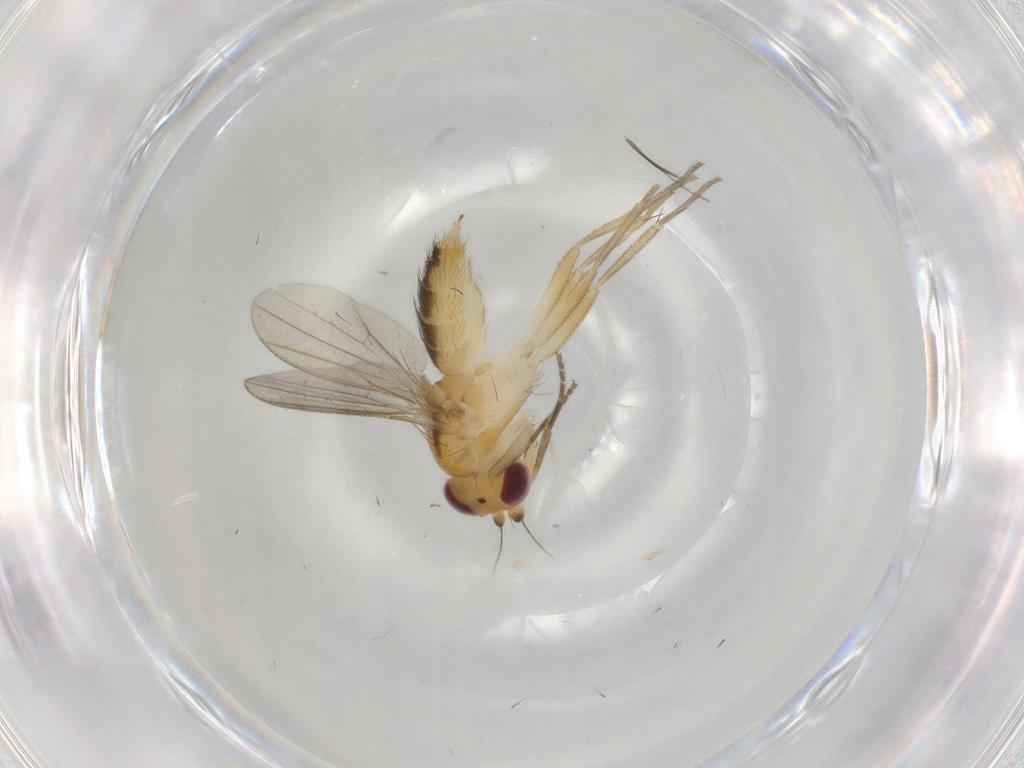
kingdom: Animalia
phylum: Arthropoda
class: Insecta
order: Diptera
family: Clusiidae
